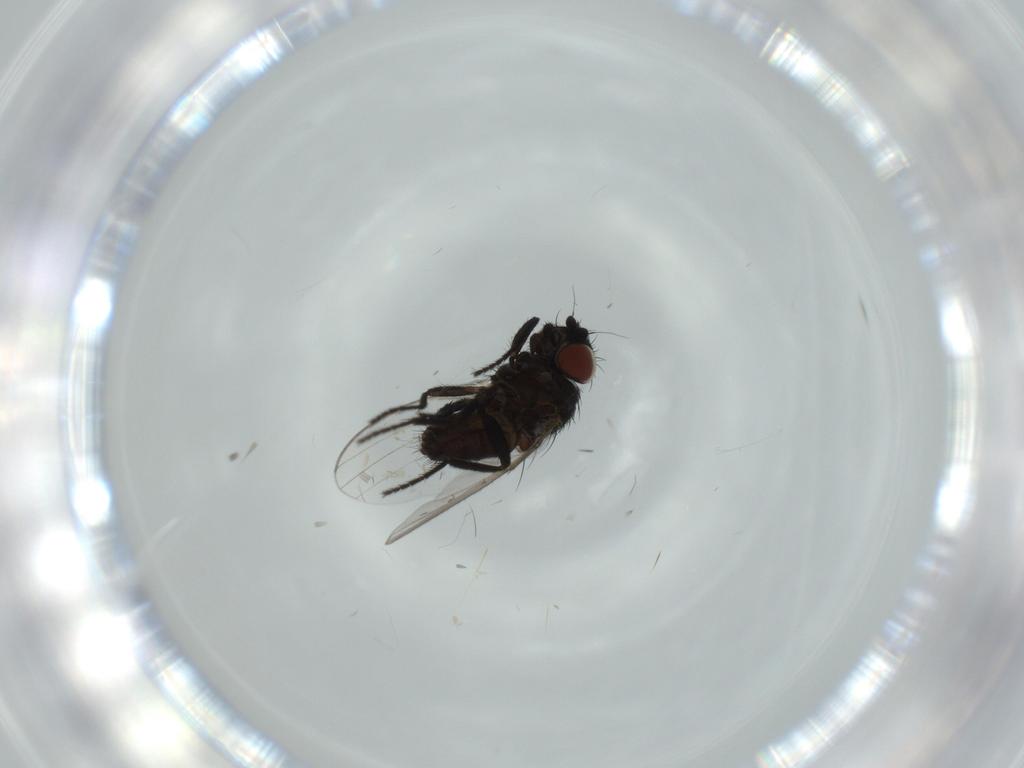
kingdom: Animalia
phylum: Arthropoda
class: Insecta
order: Diptera
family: Milichiidae
